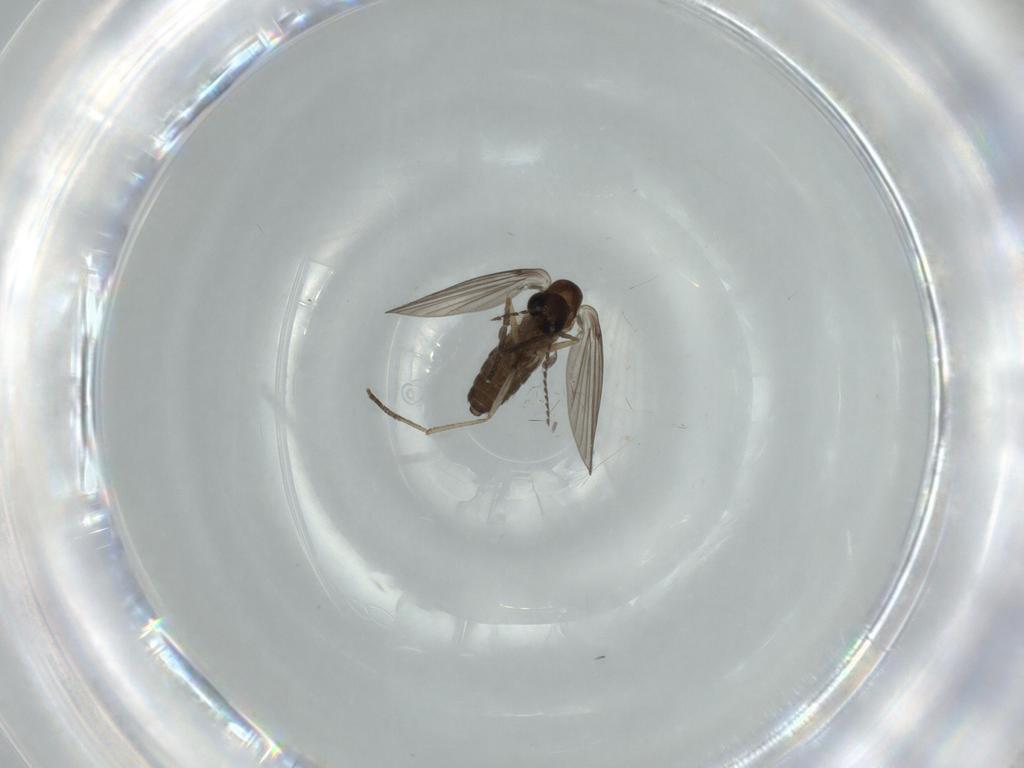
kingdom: Animalia
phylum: Arthropoda
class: Insecta
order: Diptera
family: Psychodidae
